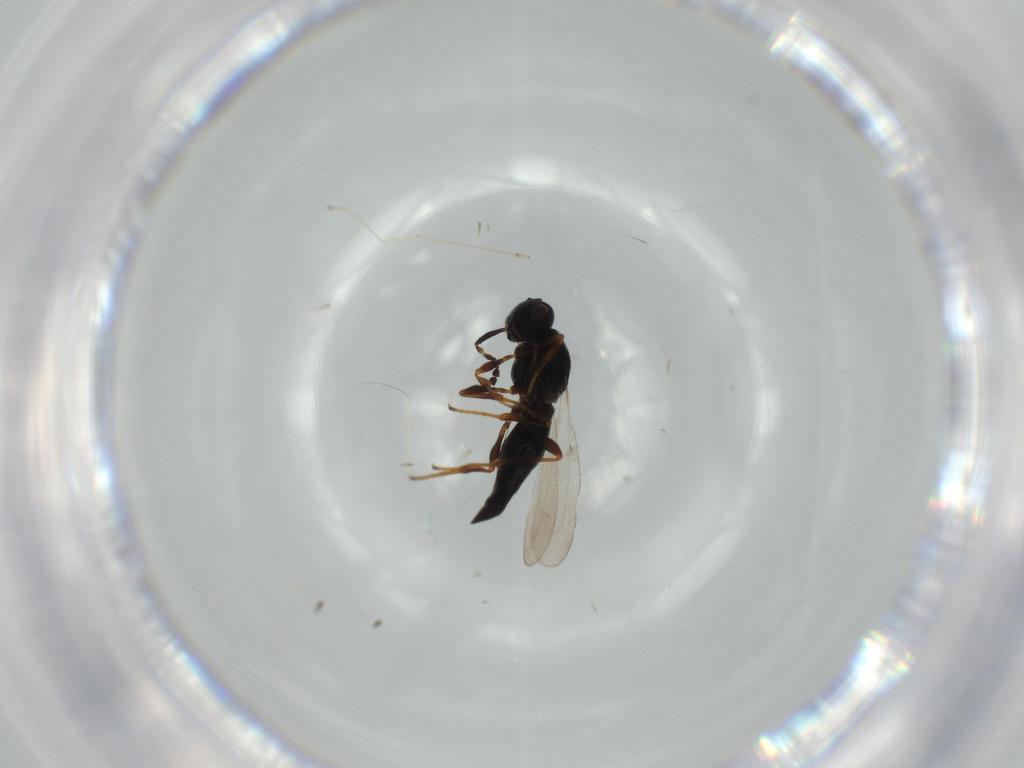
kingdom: Animalia
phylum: Arthropoda
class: Insecta
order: Diptera
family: Mythicomyiidae
